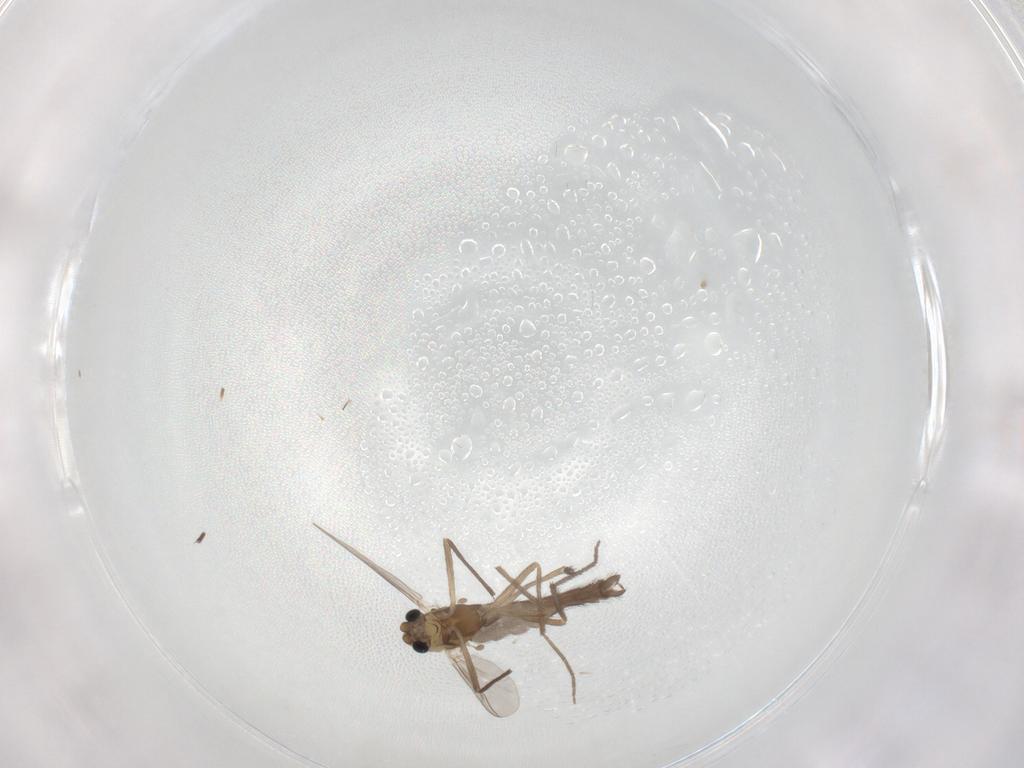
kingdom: Animalia
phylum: Arthropoda
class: Insecta
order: Diptera
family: Chironomidae
